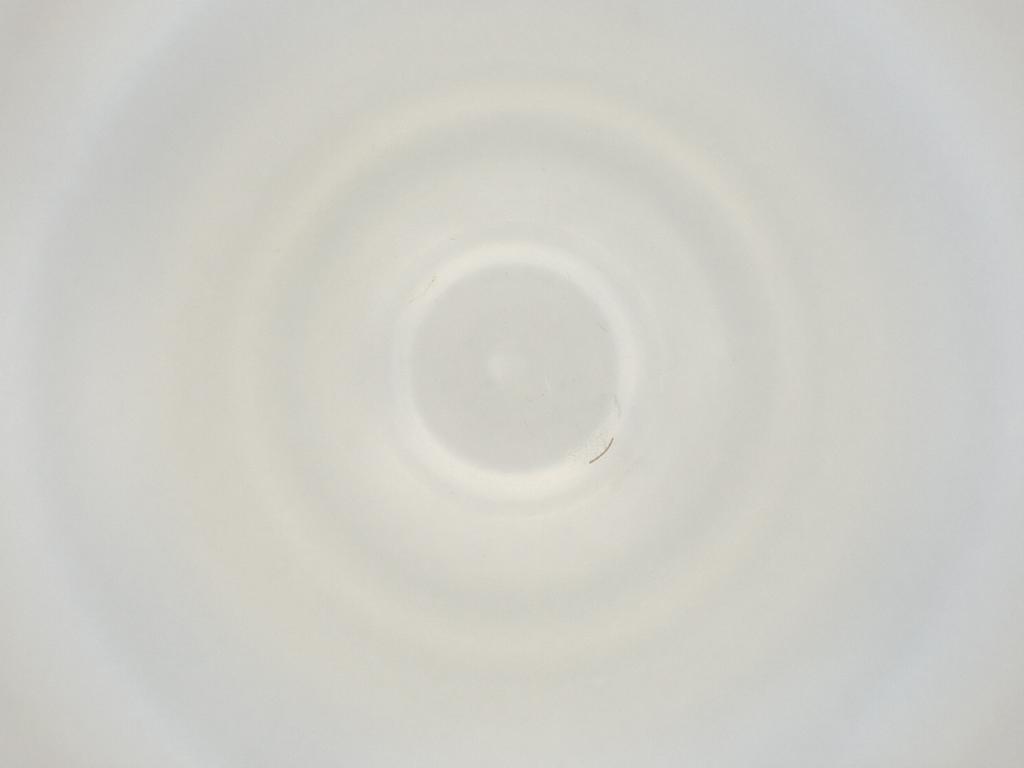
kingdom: Animalia
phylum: Arthropoda
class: Insecta
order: Diptera
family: Cecidomyiidae
